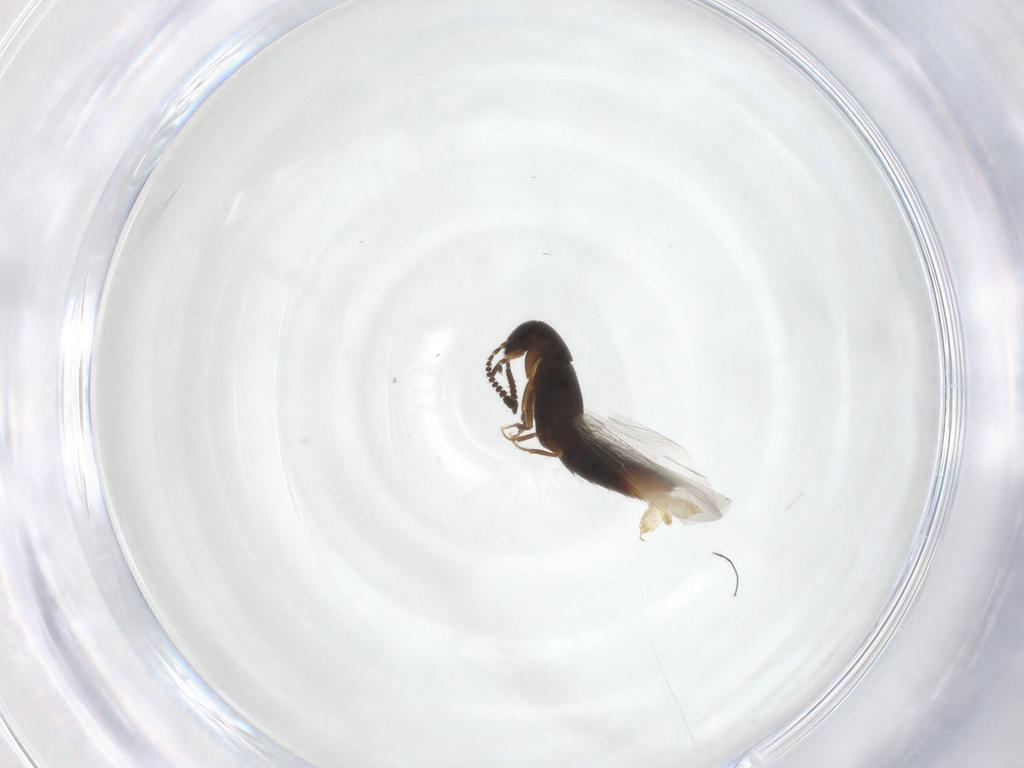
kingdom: Animalia
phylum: Arthropoda
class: Insecta
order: Coleoptera
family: Staphylinidae
